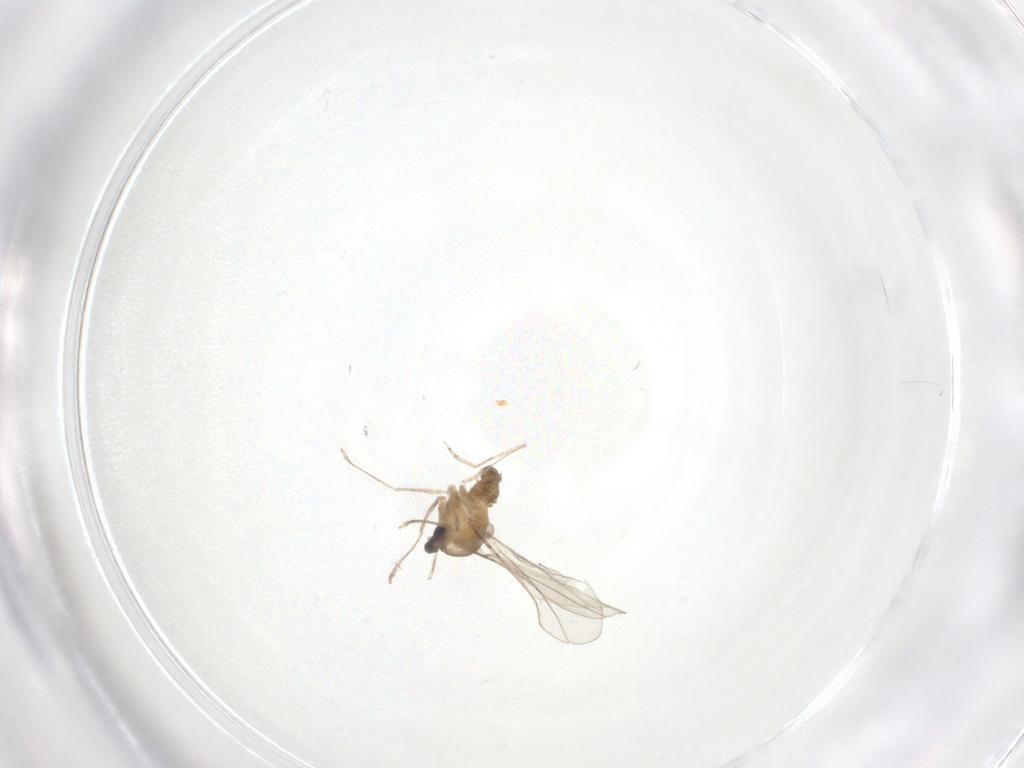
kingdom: Animalia
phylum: Arthropoda
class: Insecta
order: Diptera
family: Cecidomyiidae
